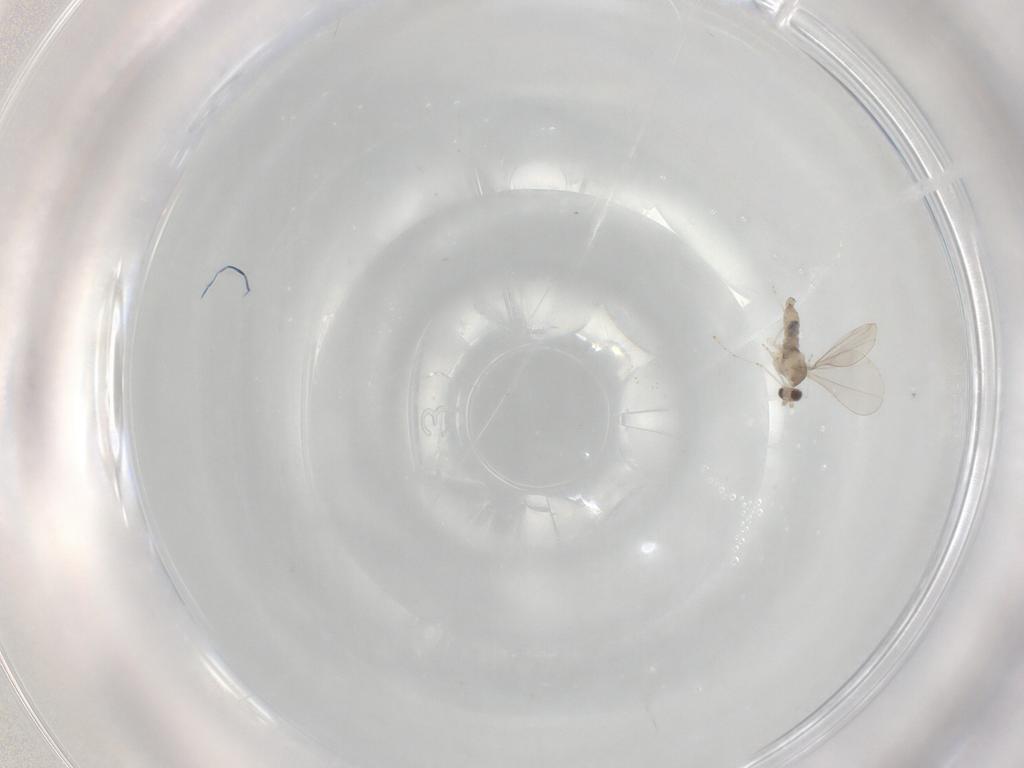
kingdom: Animalia
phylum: Arthropoda
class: Insecta
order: Diptera
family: Cecidomyiidae
